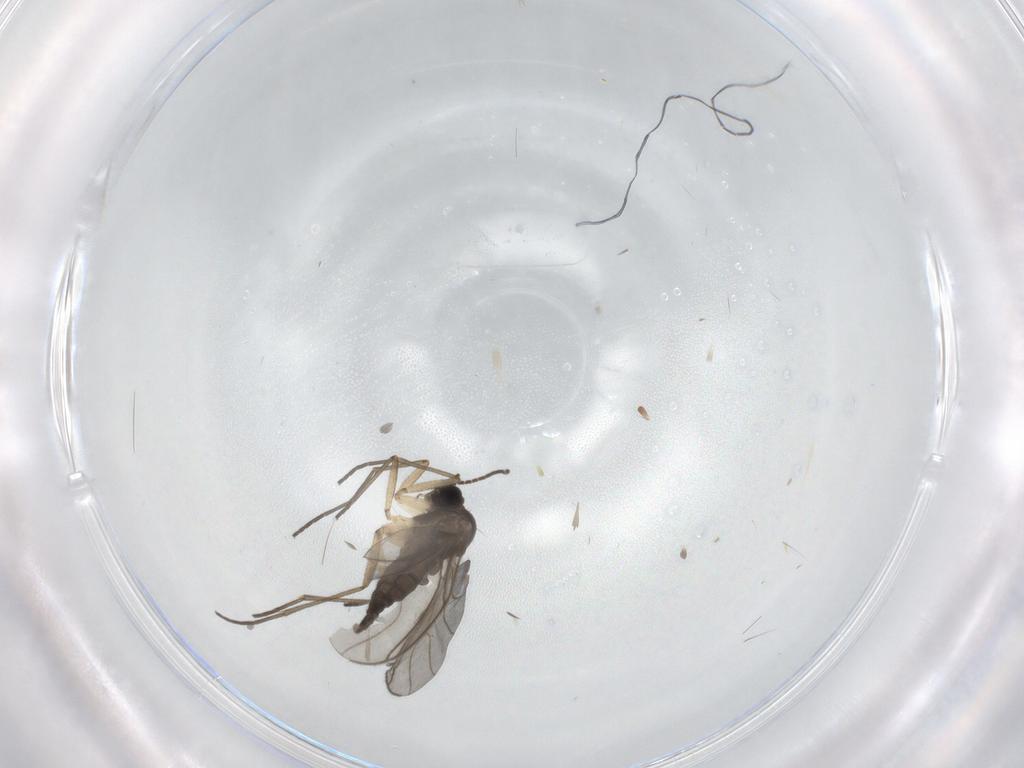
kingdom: Animalia
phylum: Arthropoda
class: Insecta
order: Diptera
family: Sciaridae
